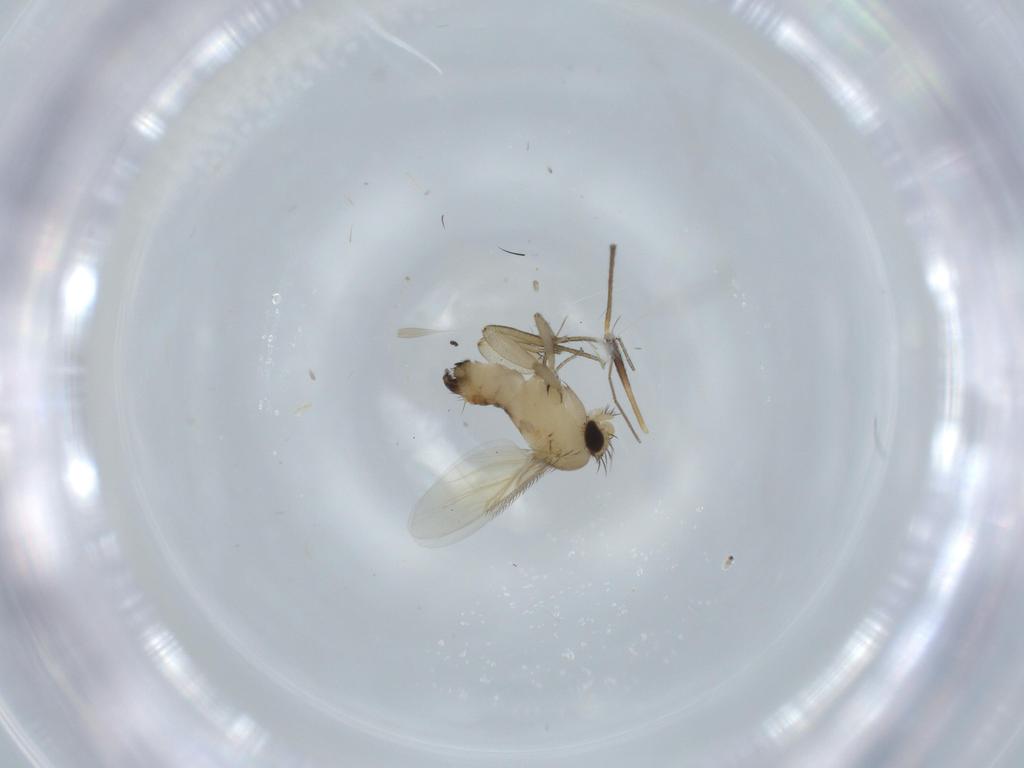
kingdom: Animalia
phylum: Arthropoda
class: Insecta
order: Diptera
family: Phoridae
